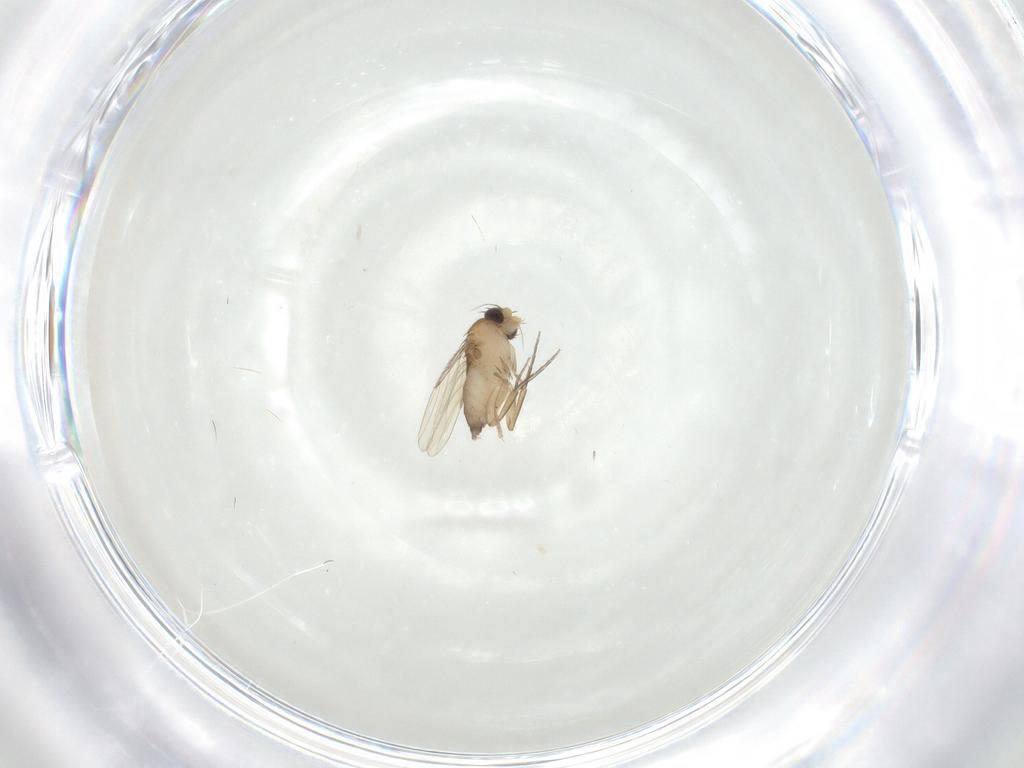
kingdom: Animalia
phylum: Arthropoda
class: Insecta
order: Diptera
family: Phoridae
